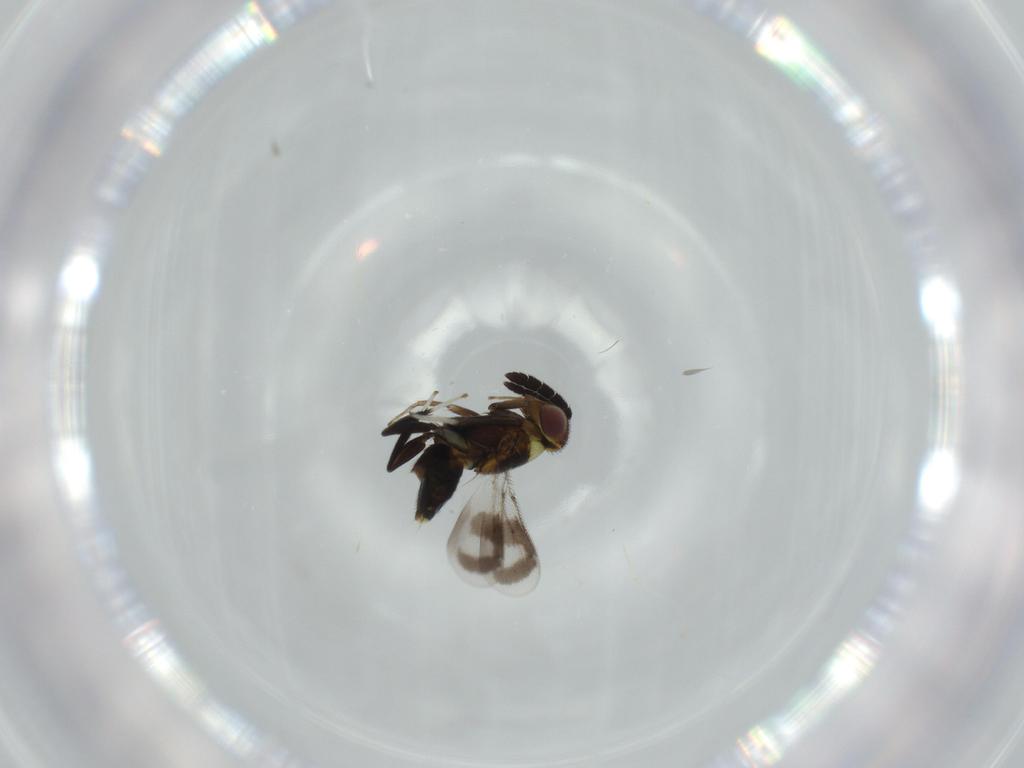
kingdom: Animalia
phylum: Arthropoda
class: Insecta
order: Hymenoptera
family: Aphelinidae
